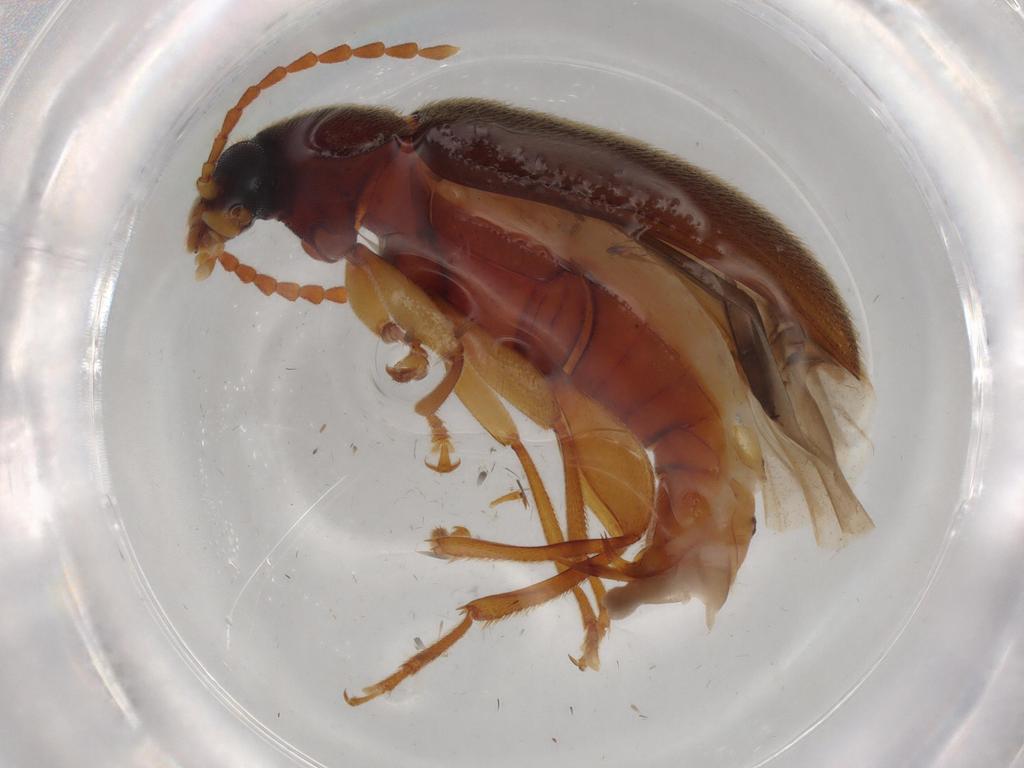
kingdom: Animalia
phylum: Arthropoda
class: Insecta
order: Coleoptera
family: Tenebrionidae
